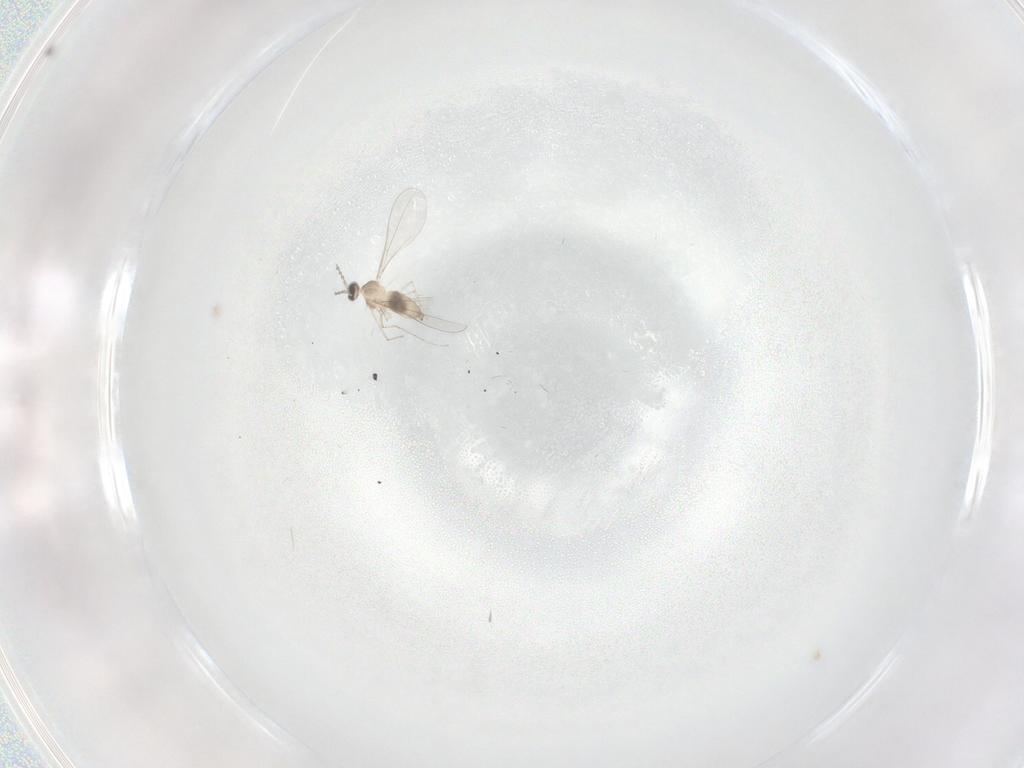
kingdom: Animalia
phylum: Arthropoda
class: Insecta
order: Diptera
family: Cecidomyiidae
